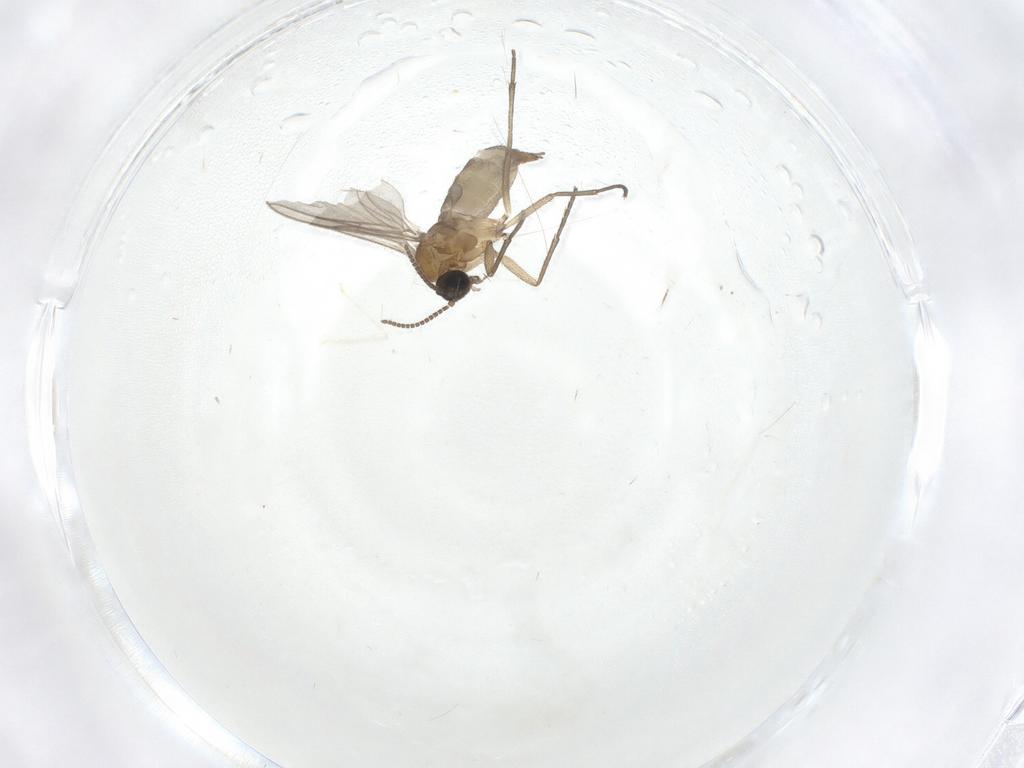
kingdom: Animalia
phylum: Arthropoda
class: Insecta
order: Diptera
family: Sciaridae
